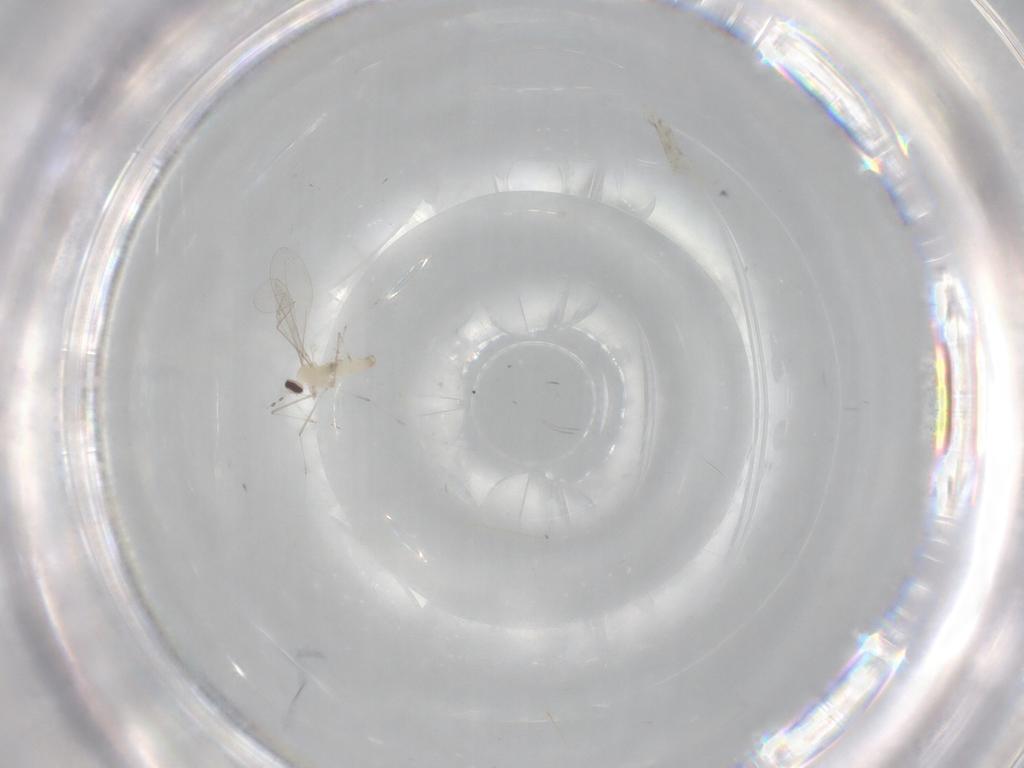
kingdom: Animalia
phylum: Arthropoda
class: Insecta
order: Diptera
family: Cecidomyiidae
